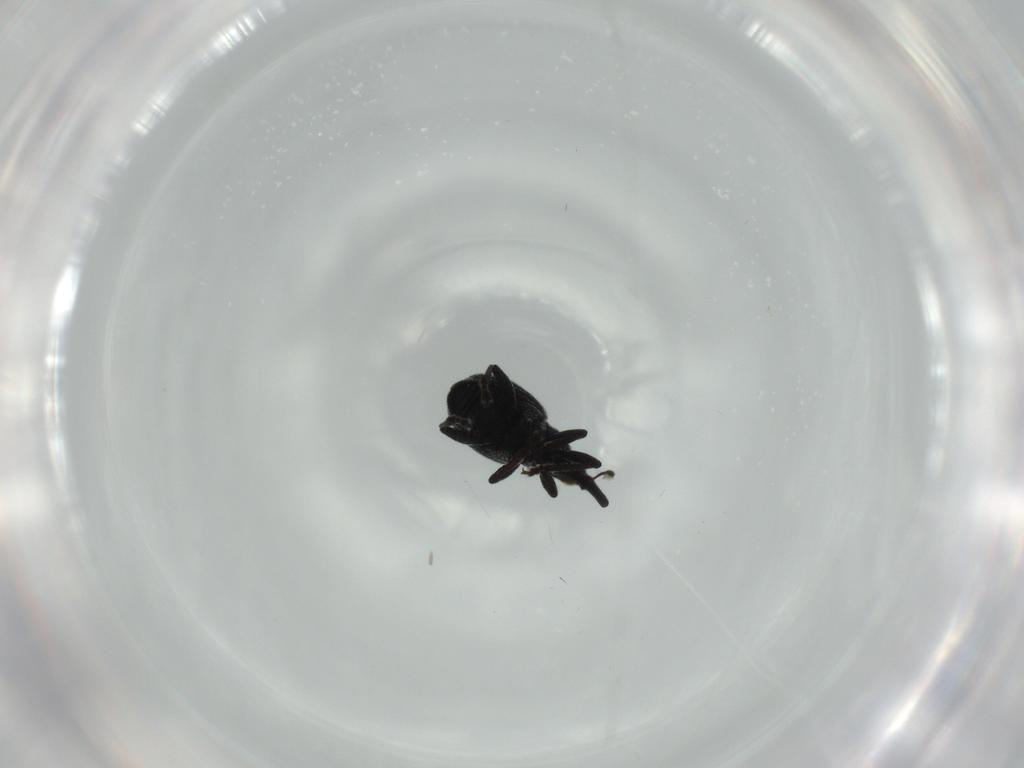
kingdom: Animalia
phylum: Arthropoda
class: Insecta
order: Coleoptera
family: Brentidae
